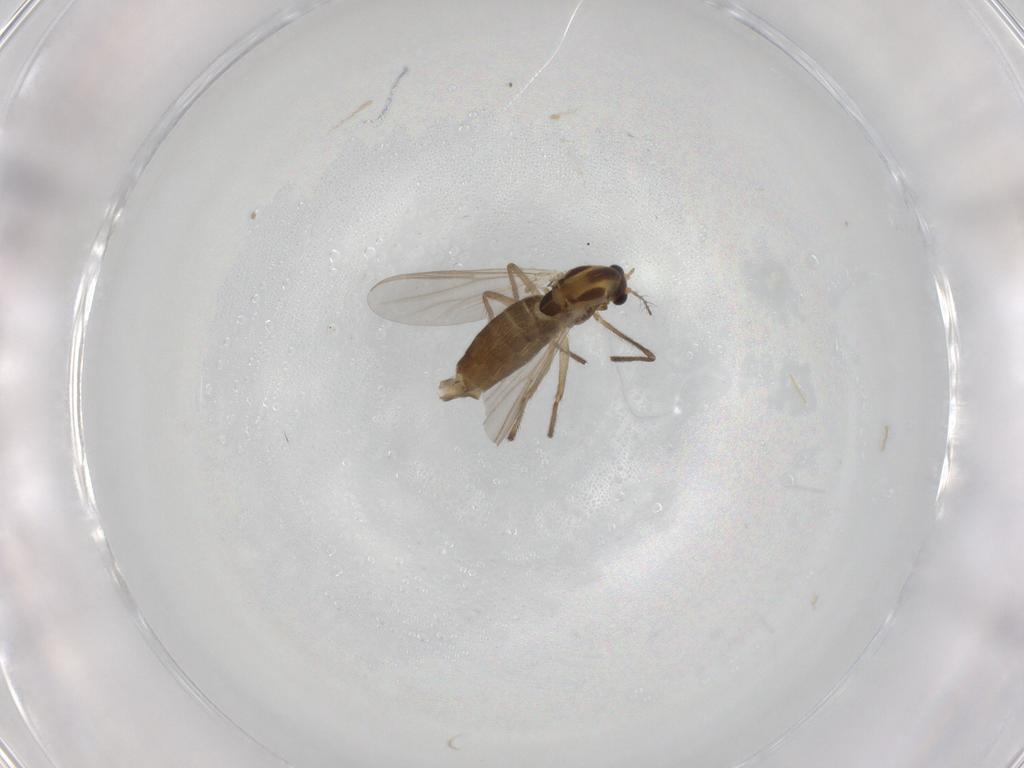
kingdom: Animalia
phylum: Arthropoda
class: Insecta
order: Diptera
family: Chironomidae
